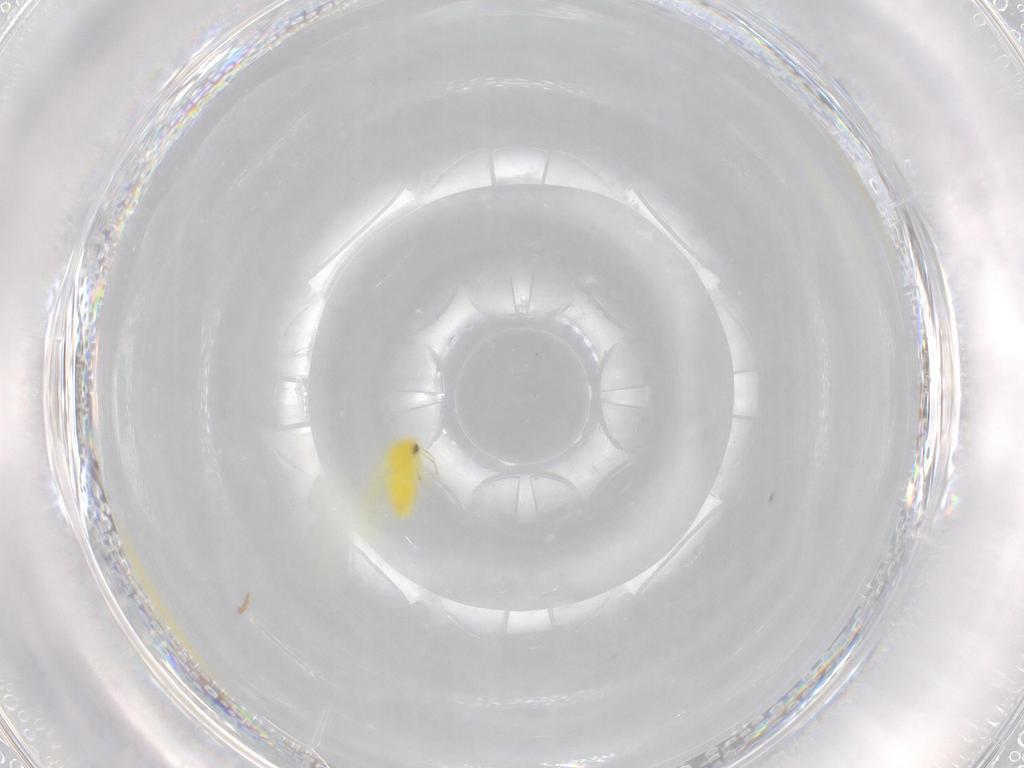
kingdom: Animalia
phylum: Arthropoda
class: Insecta
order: Hemiptera
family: Aleyrodidae
